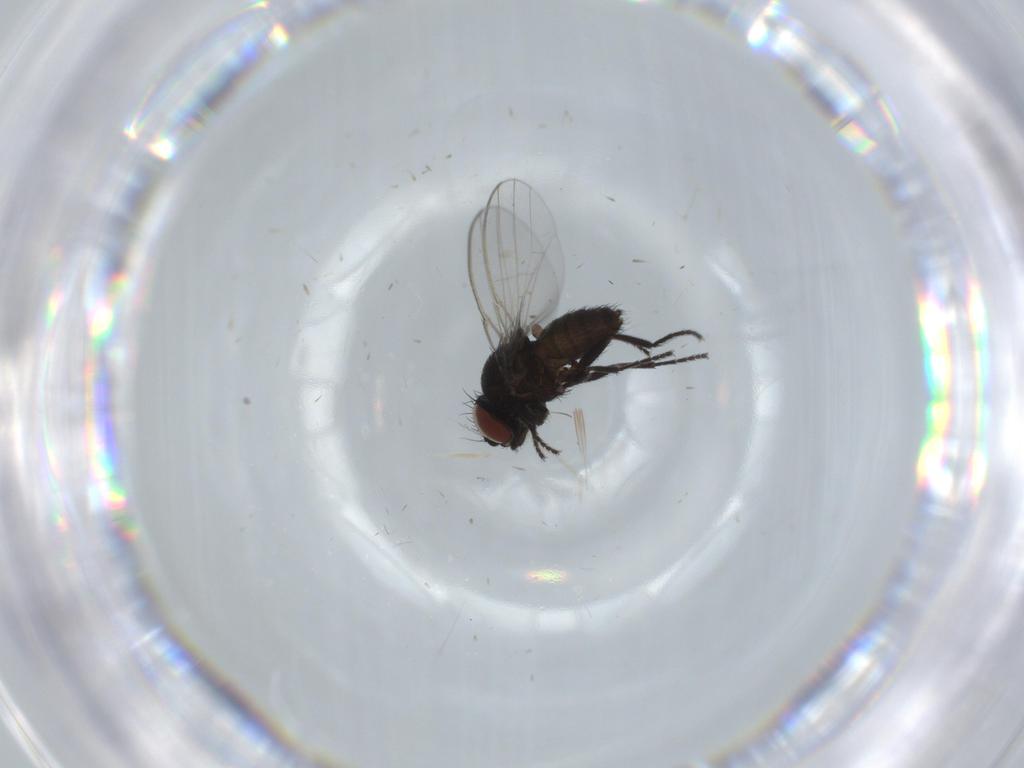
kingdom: Animalia
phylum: Arthropoda
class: Insecta
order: Diptera
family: Milichiidae
